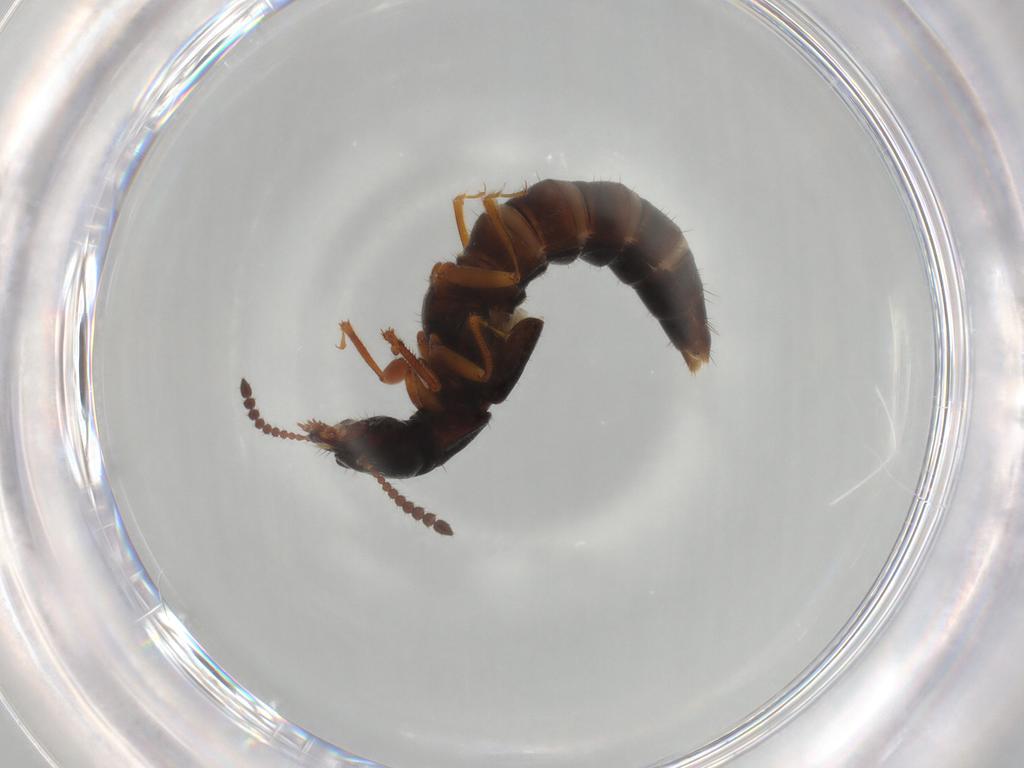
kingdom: Animalia
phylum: Arthropoda
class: Insecta
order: Coleoptera
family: Staphylinidae
